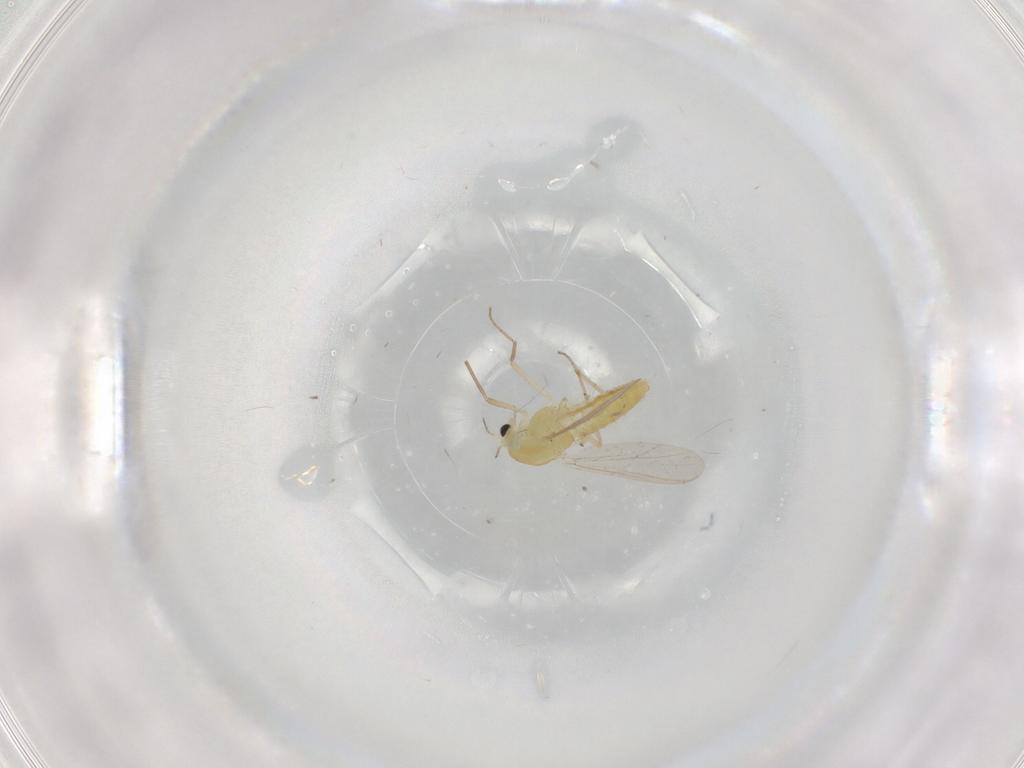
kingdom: Animalia
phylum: Arthropoda
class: Insecta
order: Diptera
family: Chironomidae
